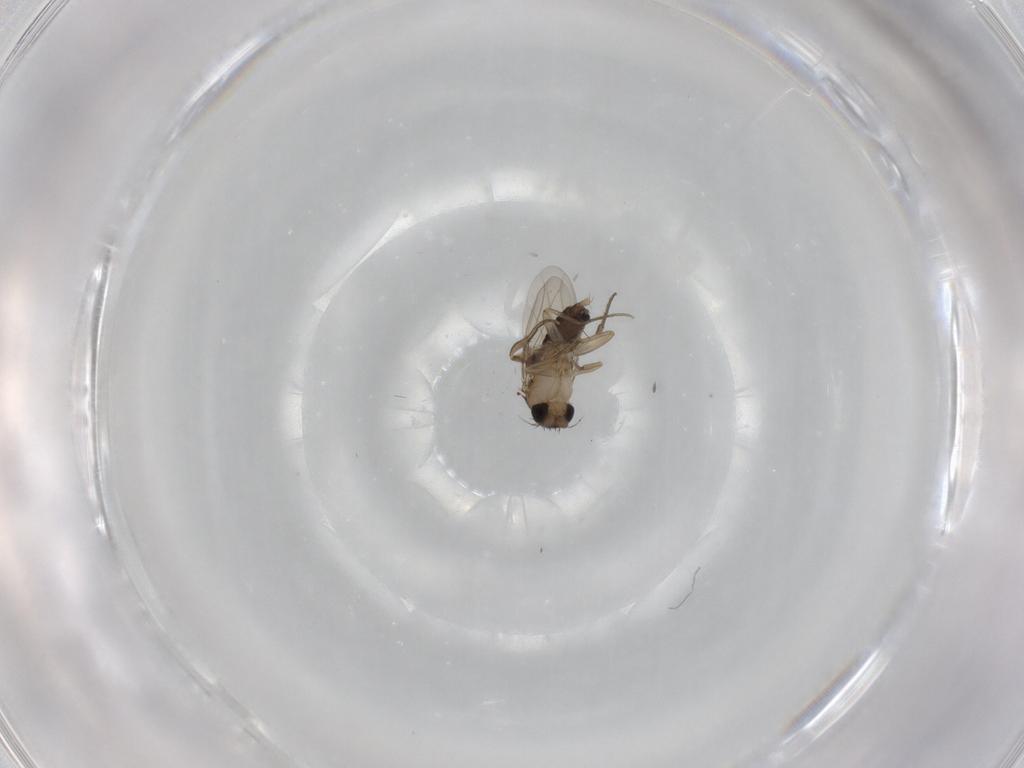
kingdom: Animalia
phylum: Arthropoda
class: Insecta
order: Diptera
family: Phoridae
